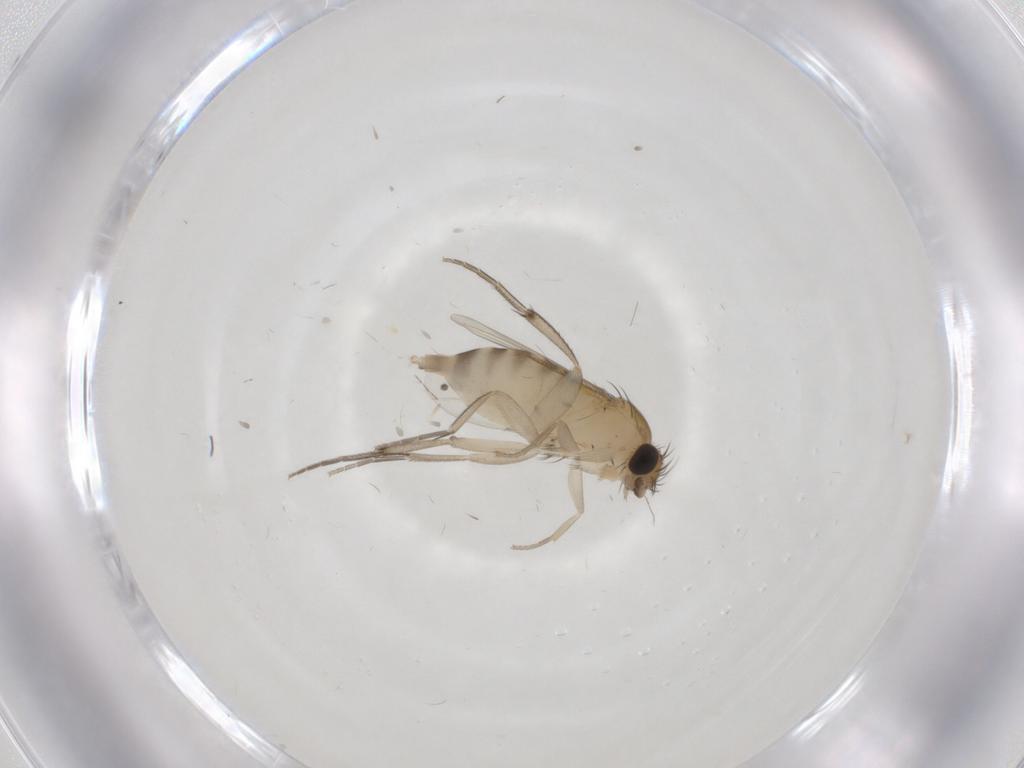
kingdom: Animalia
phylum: Arthropoda
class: Insecta
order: Diptera
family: Phoridae
